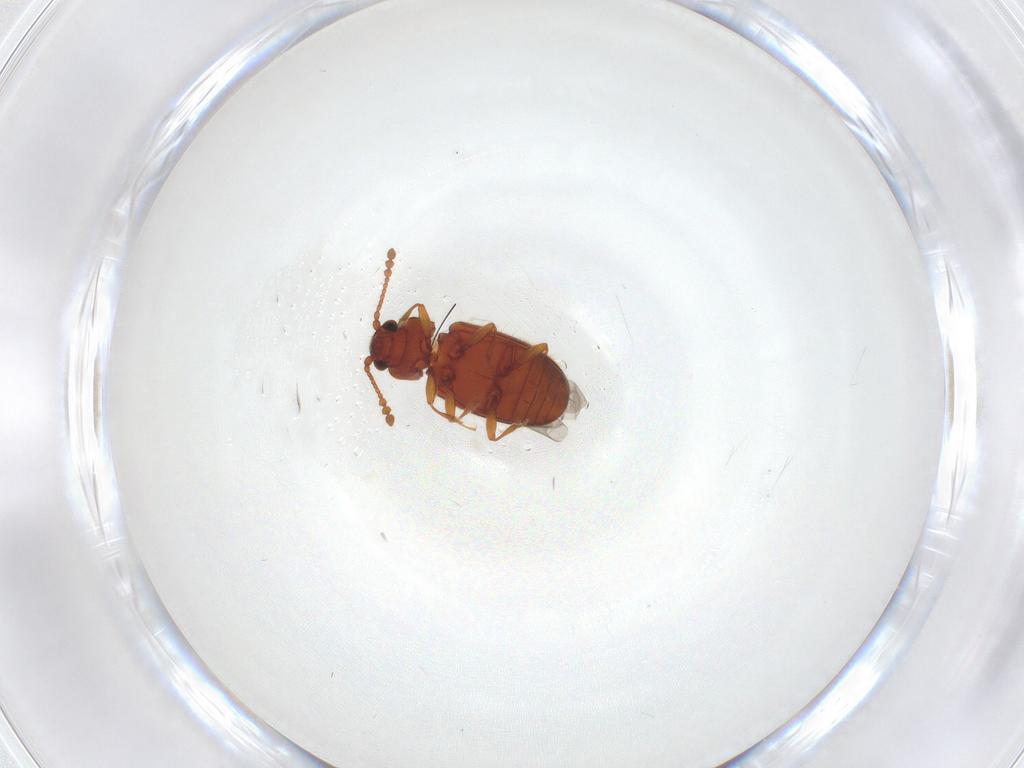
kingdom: Animalia
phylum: Arthropoda
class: Insecta
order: Coleoptera
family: Cryptophagidae
